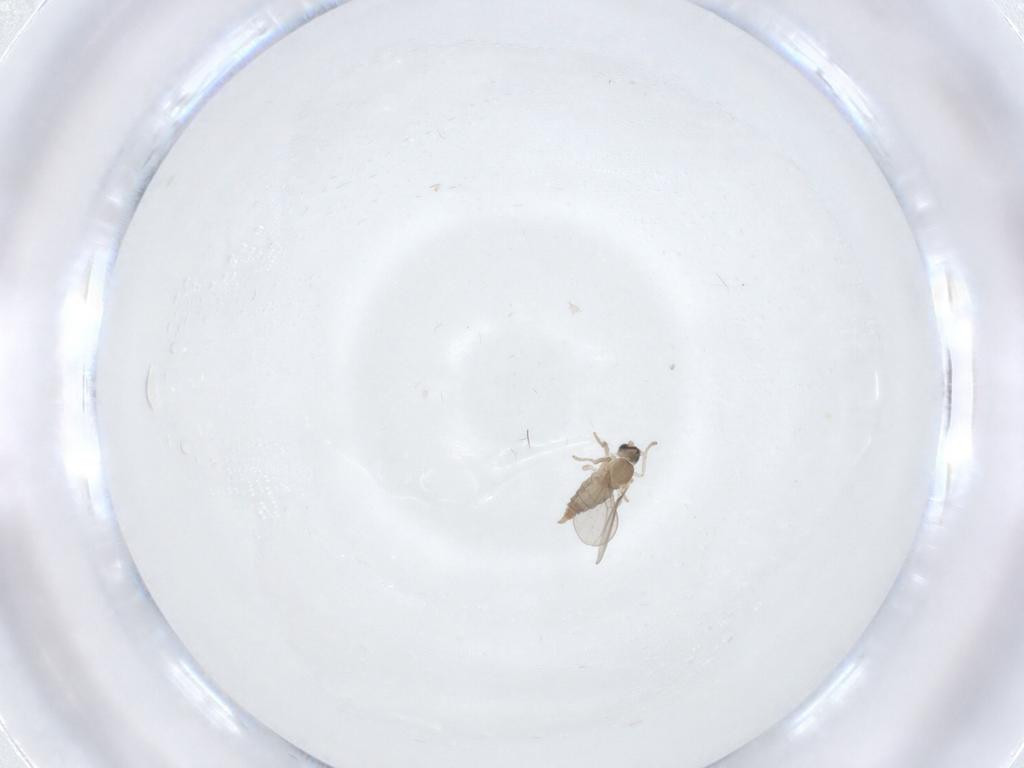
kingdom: Animalia
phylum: Arthropoda
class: Insecta
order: Diptera
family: Cecidomyiidae
